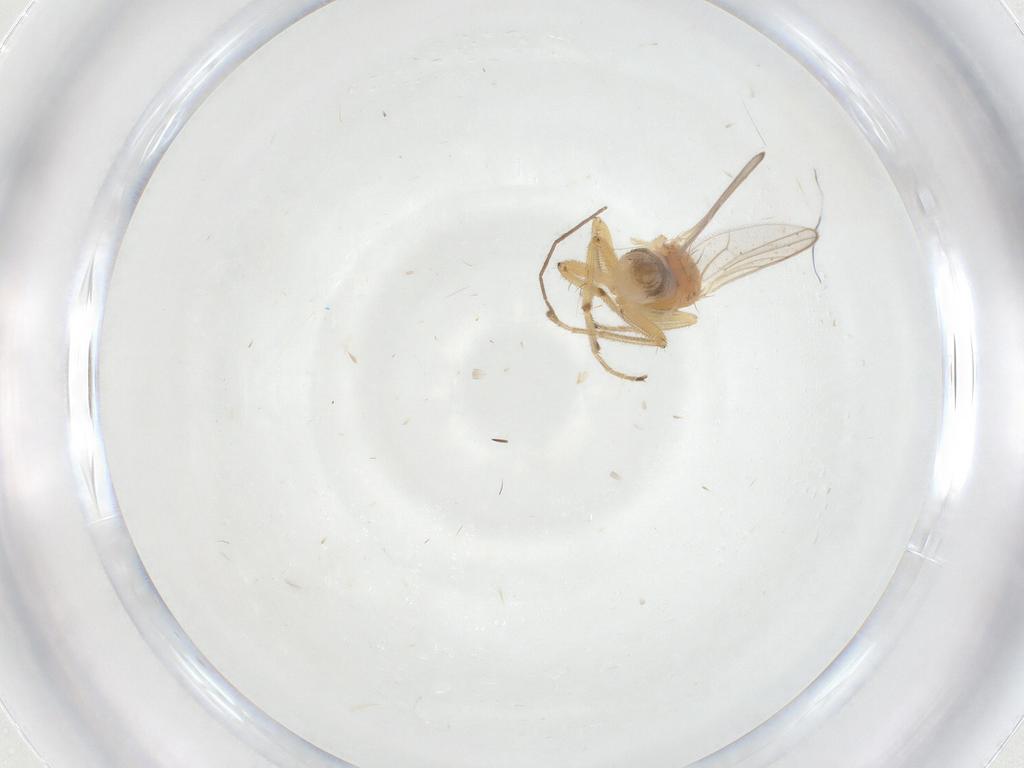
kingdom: Animalia
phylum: Arthropoda
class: Insecta
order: Diptera
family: Hybotidae
